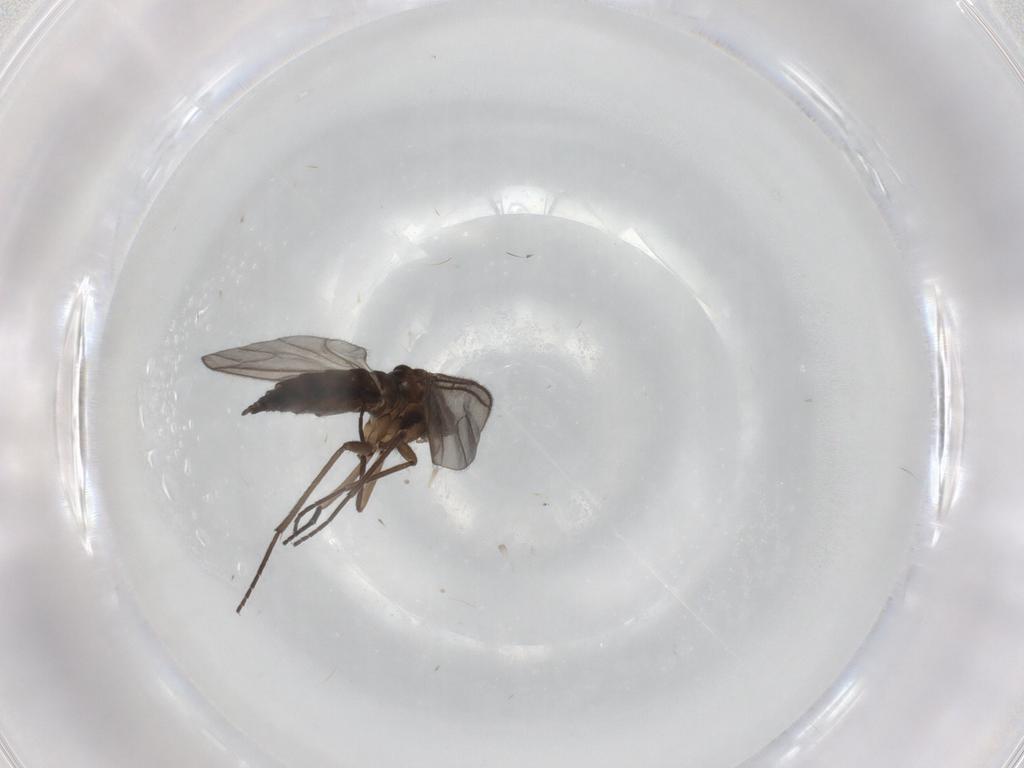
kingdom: Animalia
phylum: Arthropoda
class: Insecta
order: Diptera
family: Sciaridae
